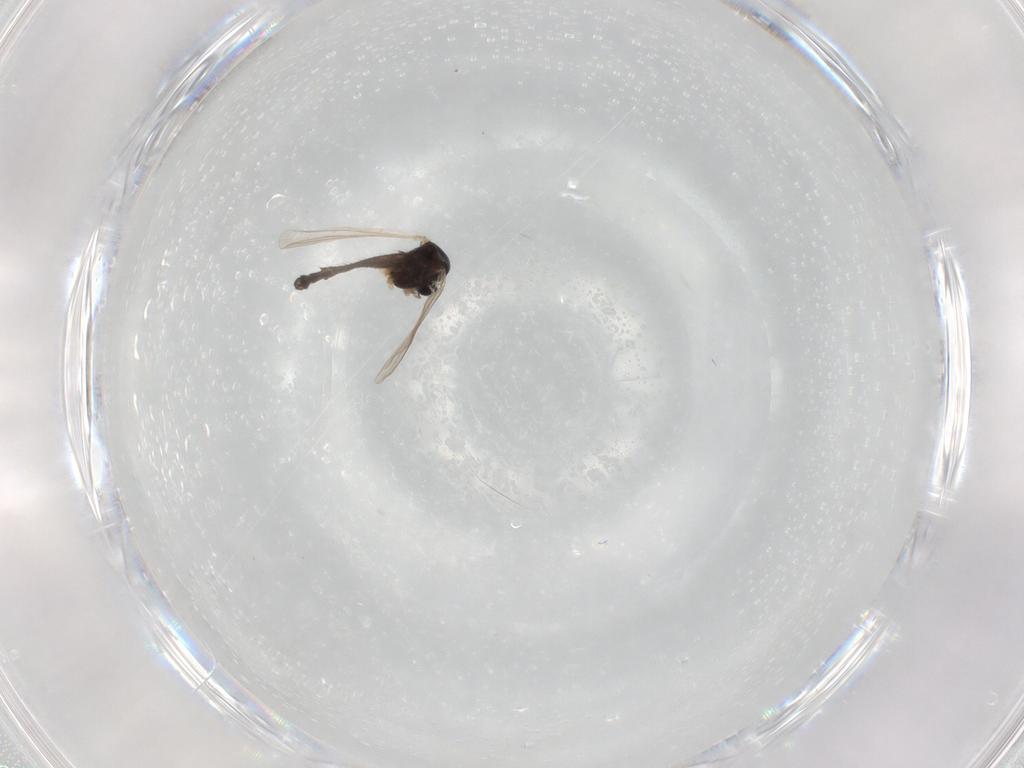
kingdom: Animalia
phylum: Arthropoda
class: Insecta
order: Diptera
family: Chironomidae
